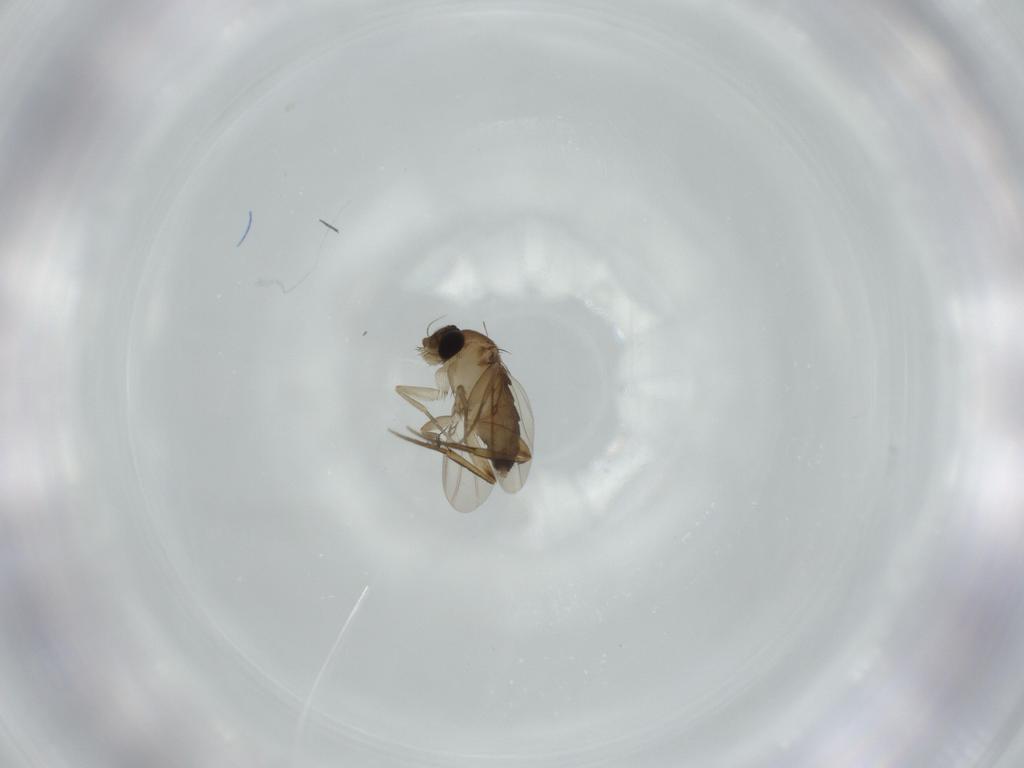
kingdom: Animalia
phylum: Arthropoda
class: Insecta
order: Diptera
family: Phoridae
